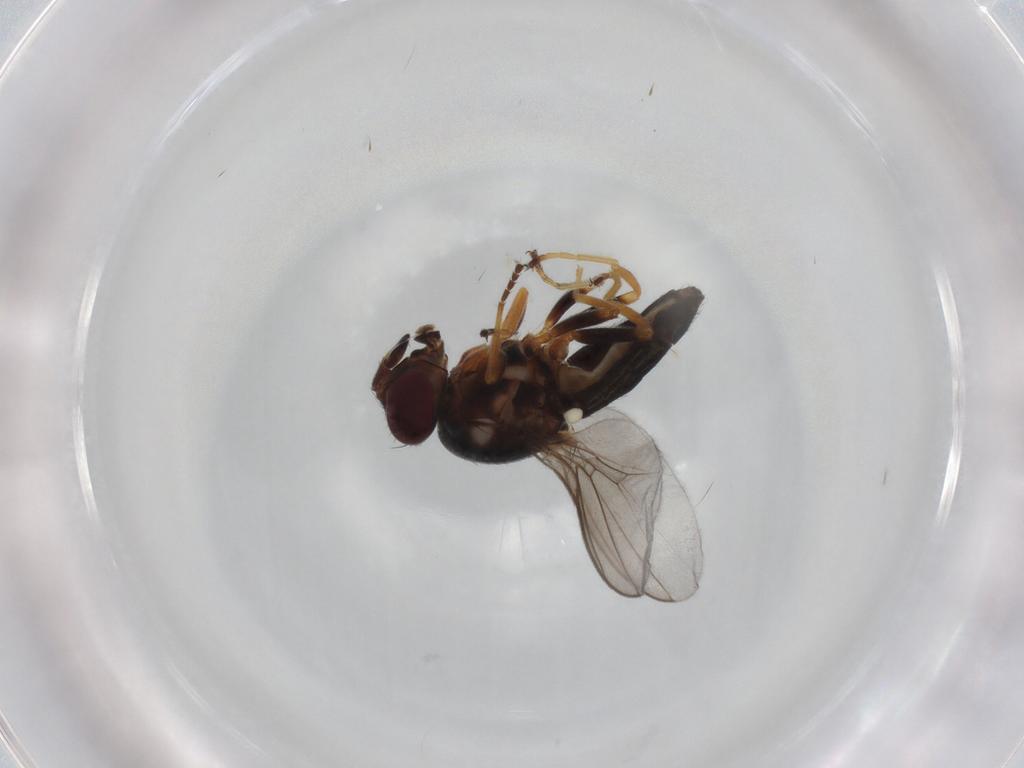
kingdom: Animalia
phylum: Arthropoda
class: Insecta
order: Diptera
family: Chloropidae
